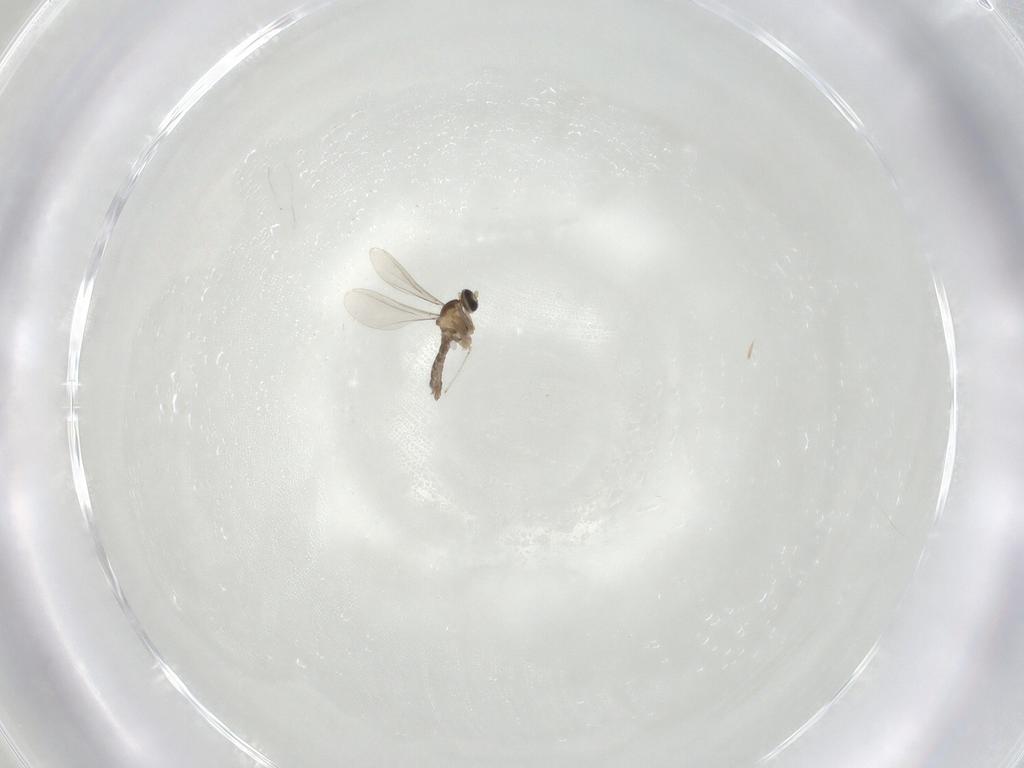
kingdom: Animalia
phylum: Arthropoda
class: Insecta
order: Diptera
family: Cecidomyiidae
